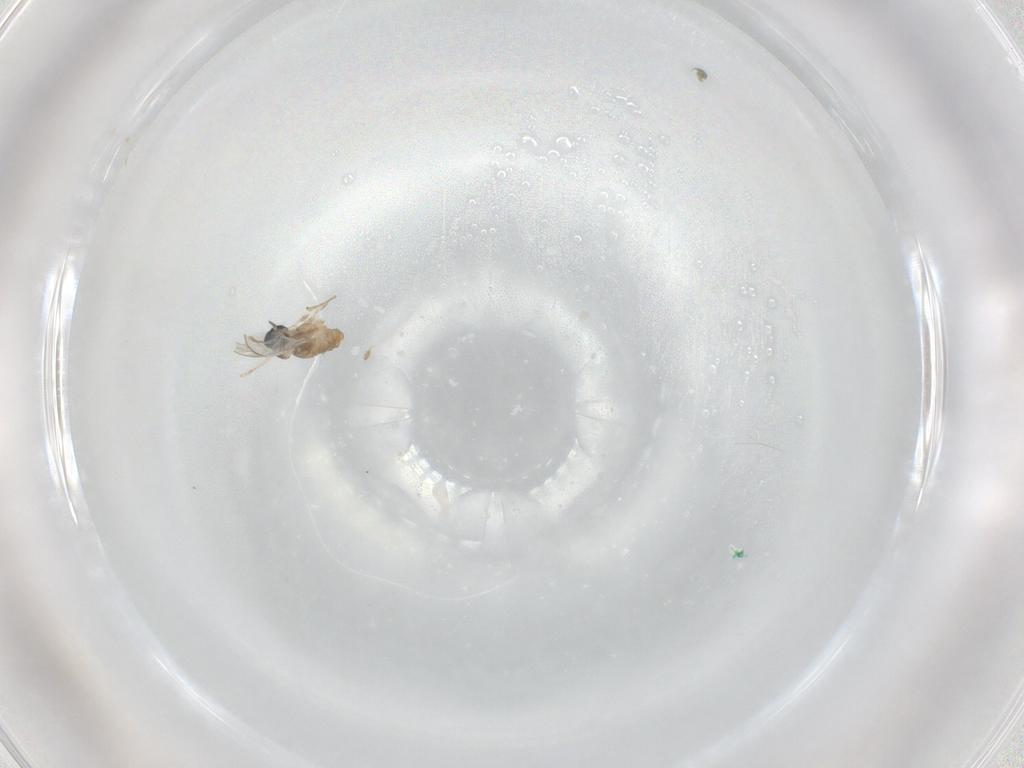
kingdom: Animalia
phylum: Arthropoda
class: Insecta
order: Diptera
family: Cecidomyiidae
